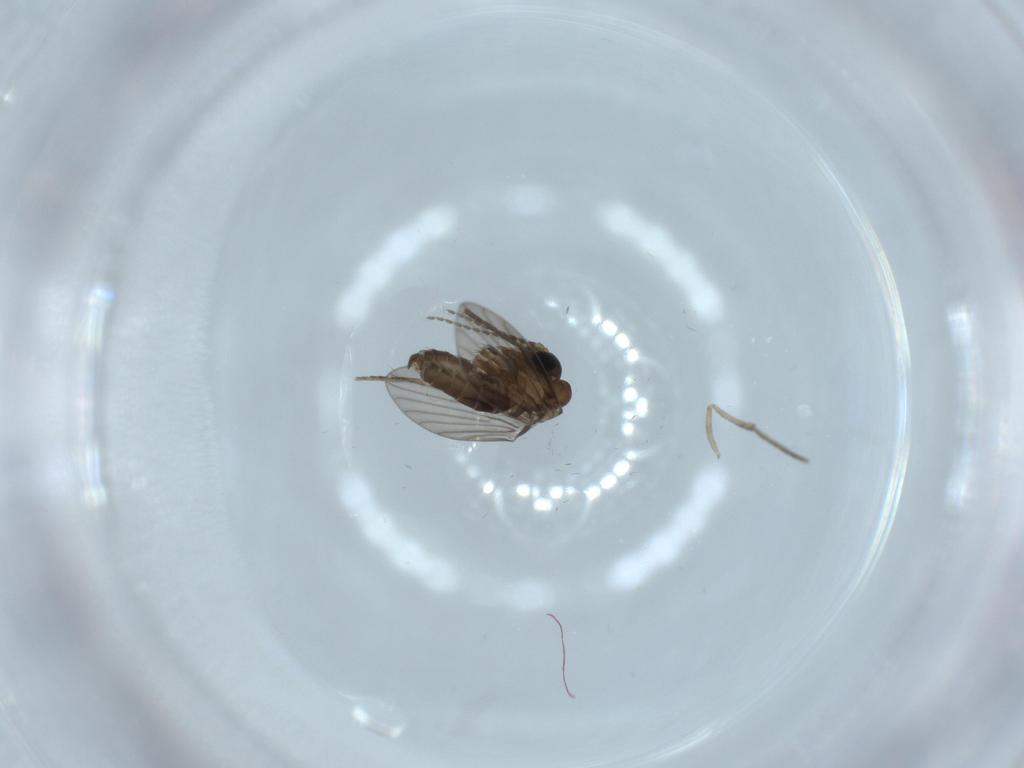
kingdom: Animalia
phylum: Arthropoda
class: Insecta
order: Diptera
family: Psychodidae
